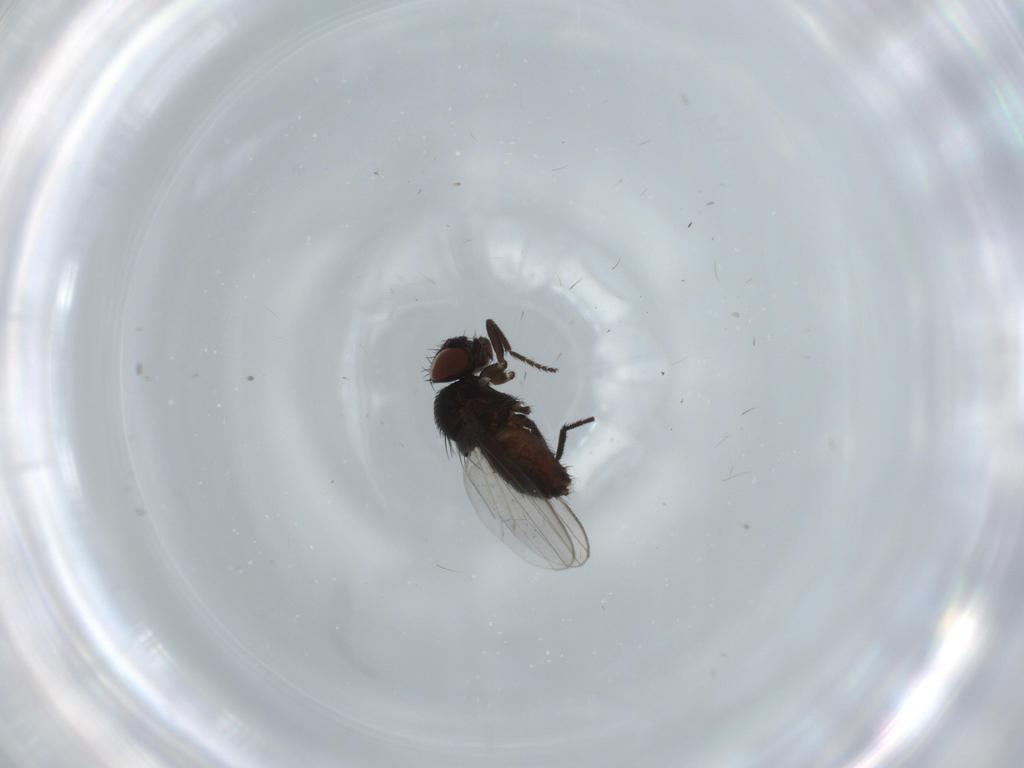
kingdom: Animalia
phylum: Arthropoda
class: Insecta
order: Diptera
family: Milichiidae
